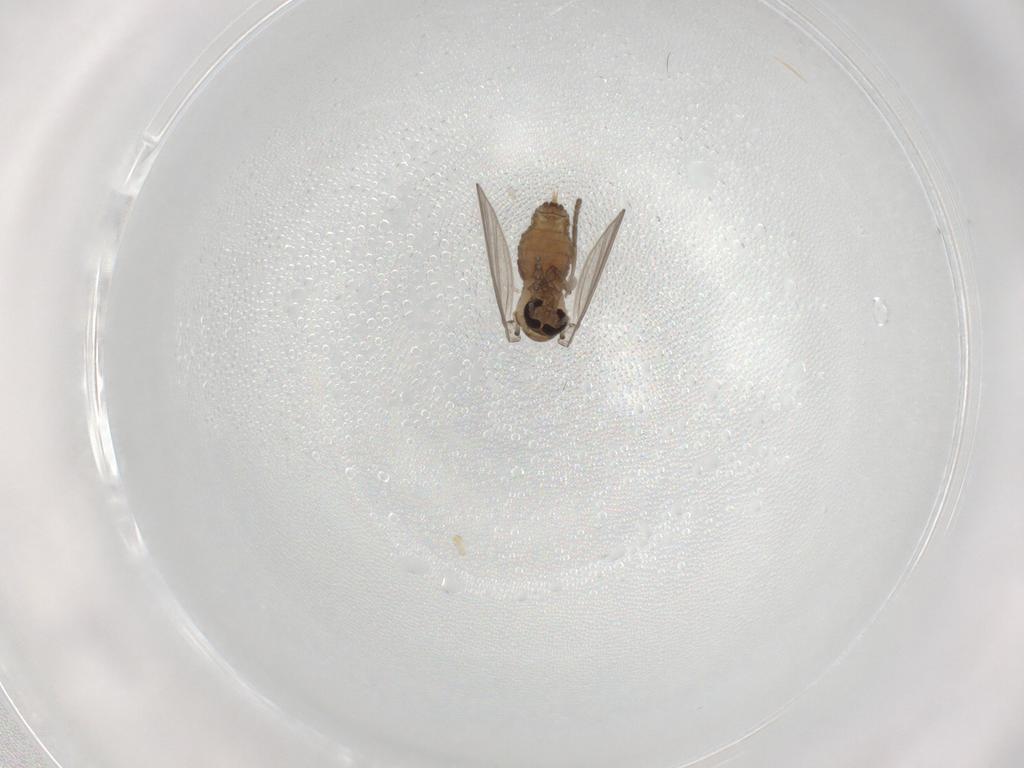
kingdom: Animalia
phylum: Arthropoda
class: Insecta
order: Diptera
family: Psychodidae
